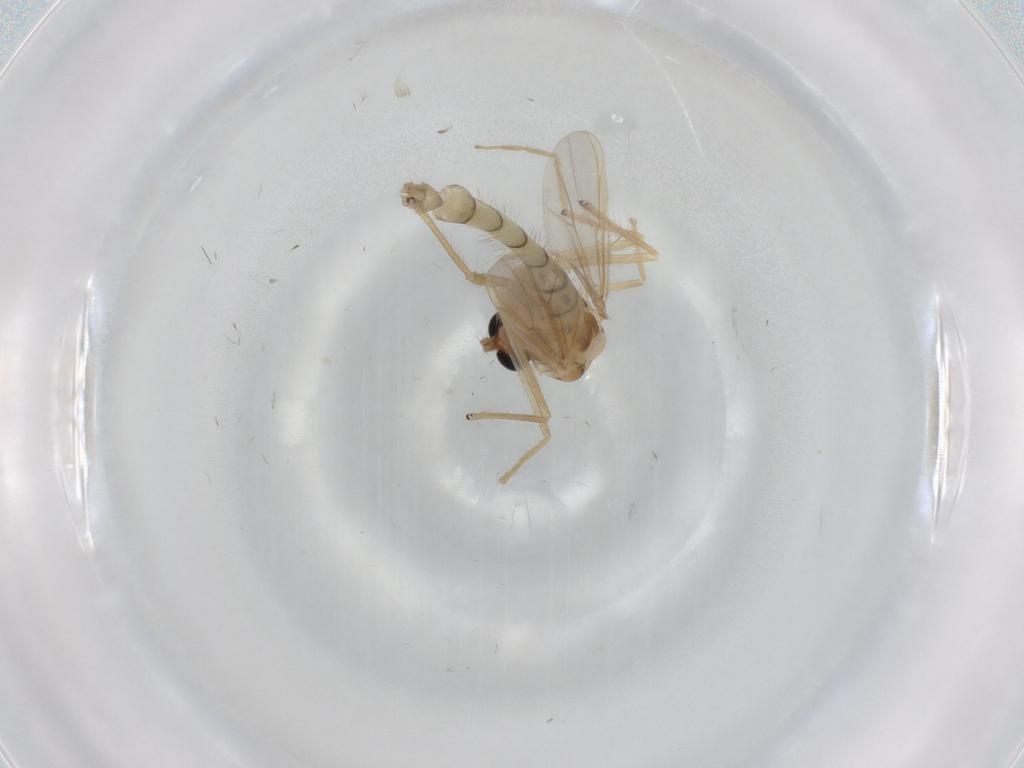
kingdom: Animalia
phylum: Arthropoda
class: Insecta
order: Diptera
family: Chironomidae
